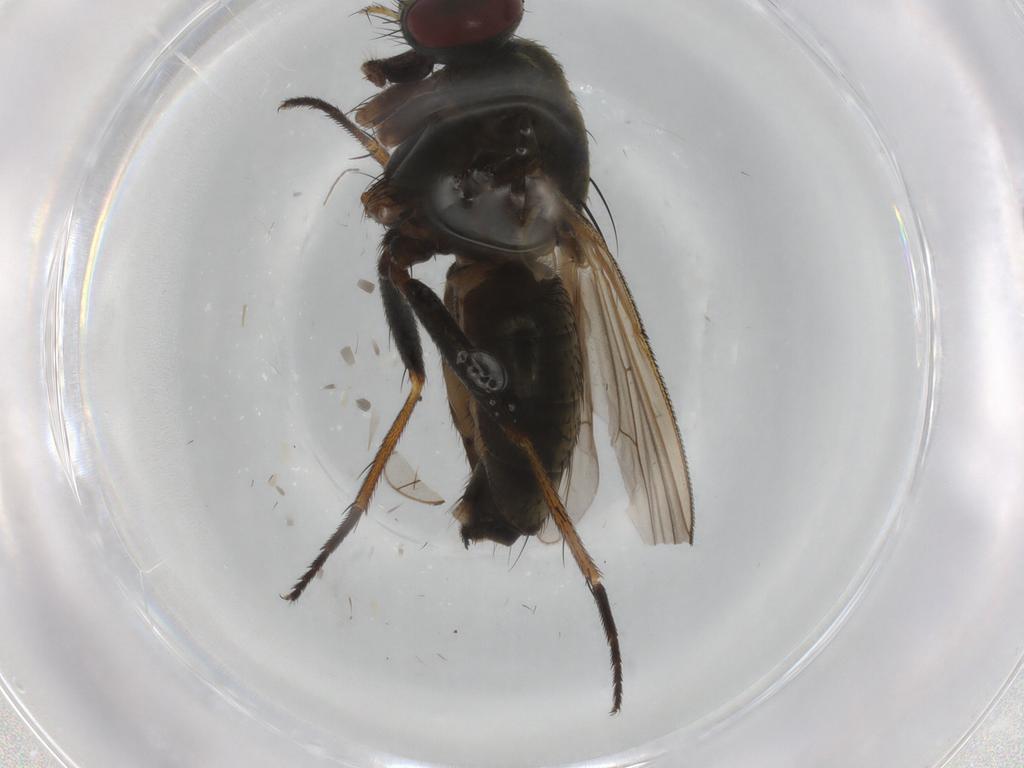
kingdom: Animalia
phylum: Arthropoda
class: Insecta
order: Diptera
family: Muscidae
